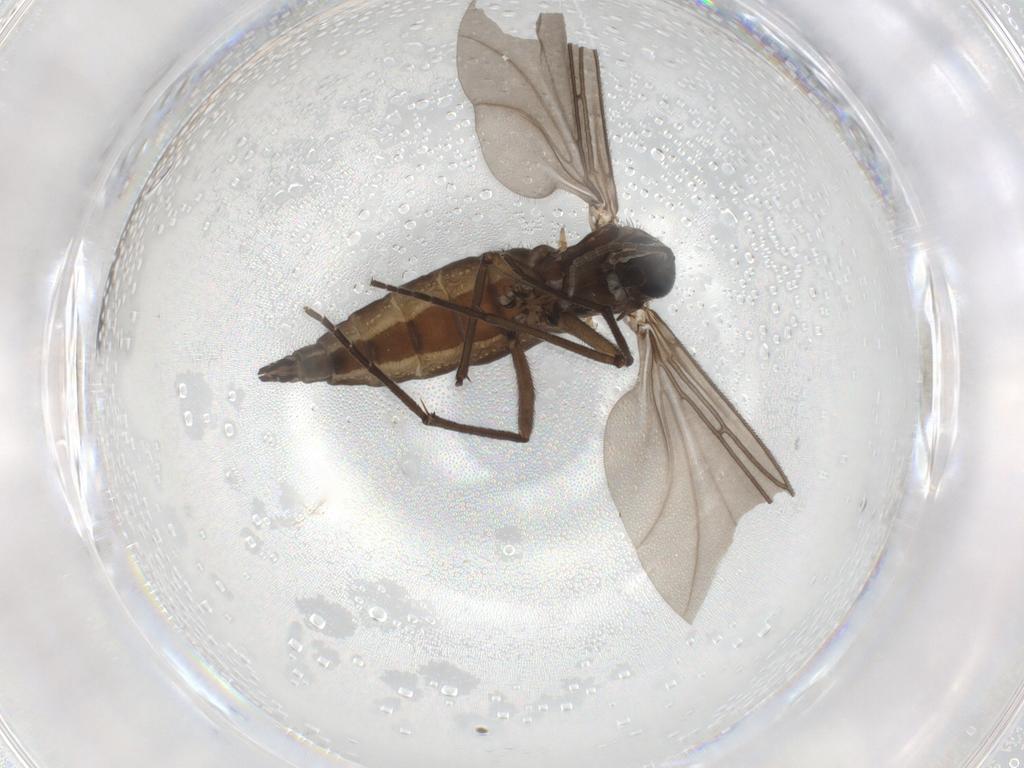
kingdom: Animalia
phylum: Arthropoda
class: Insecta
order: Diptera
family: Sciaridae
